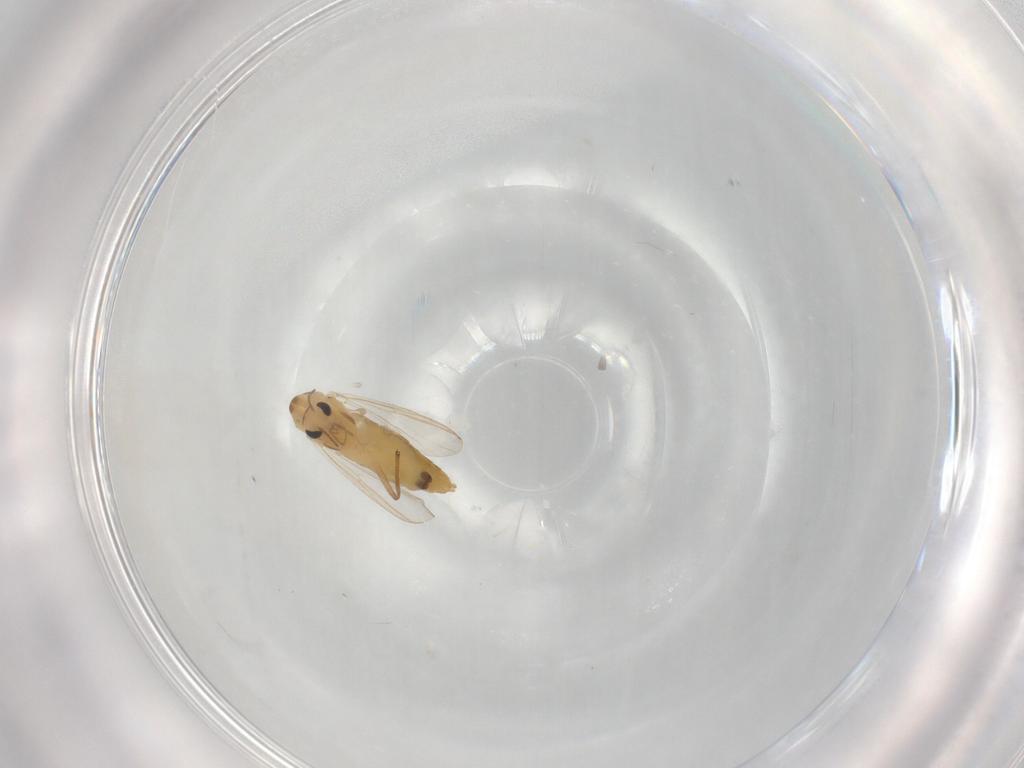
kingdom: Animalia
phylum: Arthropoda
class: Insecta
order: Diptera
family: Chironomidae
